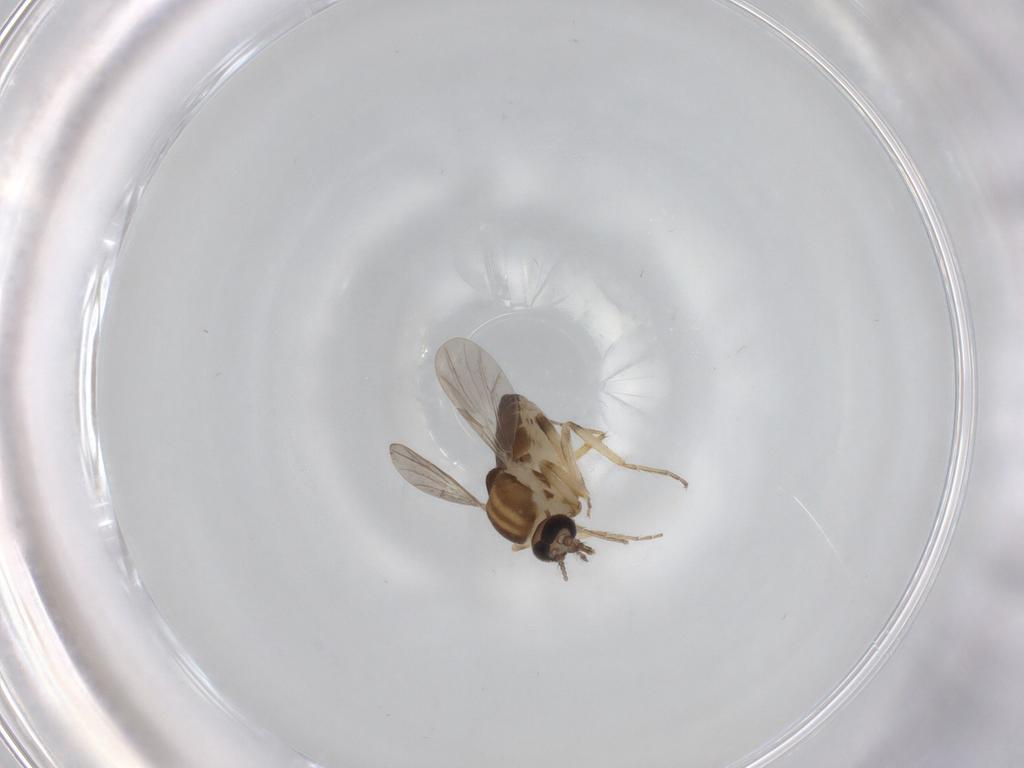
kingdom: Animalia
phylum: Arthropoda
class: Insecta
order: Diptera
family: Ceratopogonidae
